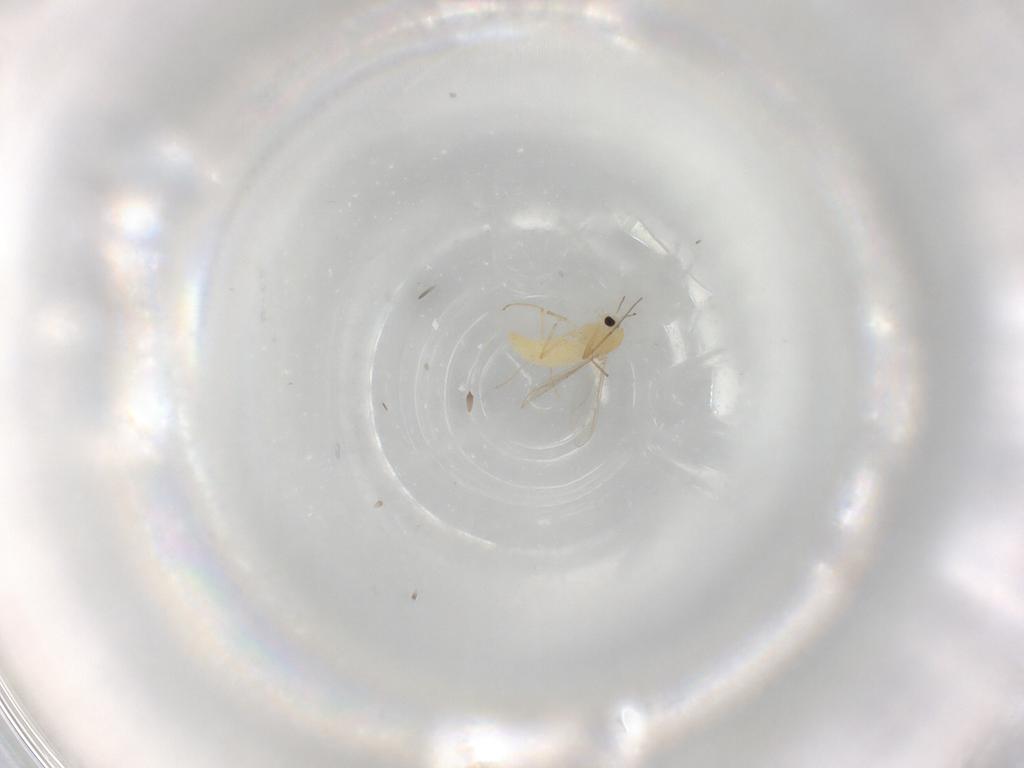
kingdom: Animalia
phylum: Arthropoda
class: Insecta
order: Diptera
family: Chironomidae
